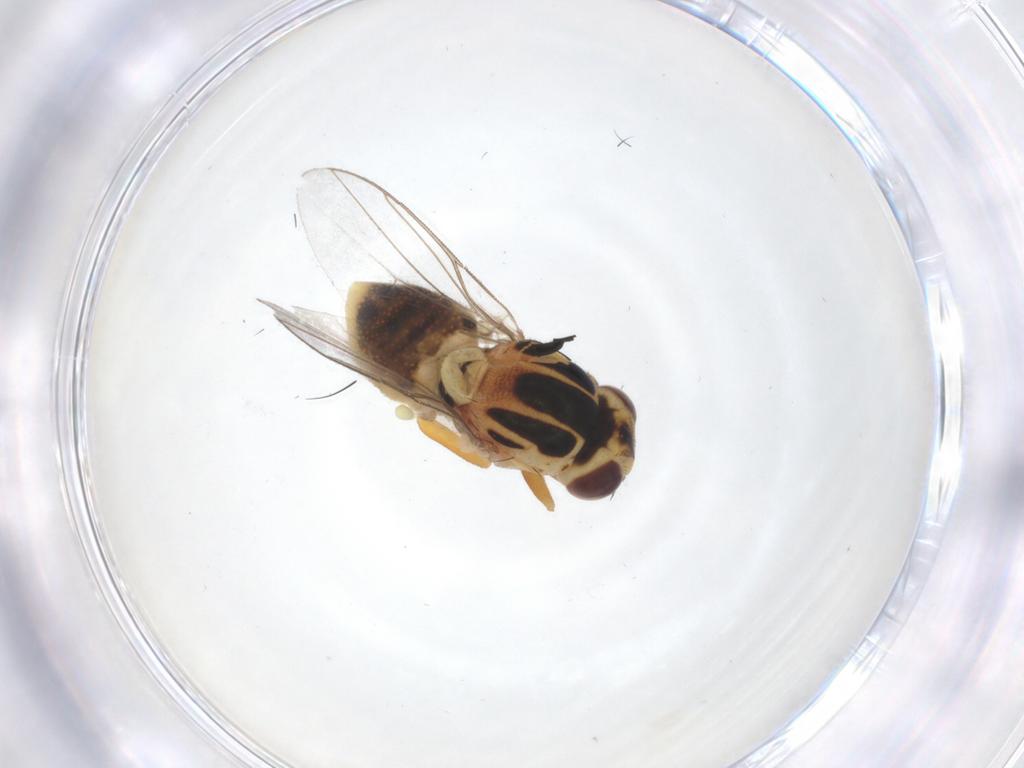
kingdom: Animalia
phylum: Arthropoda
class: Insecta
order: Diptera
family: Chloropidae
